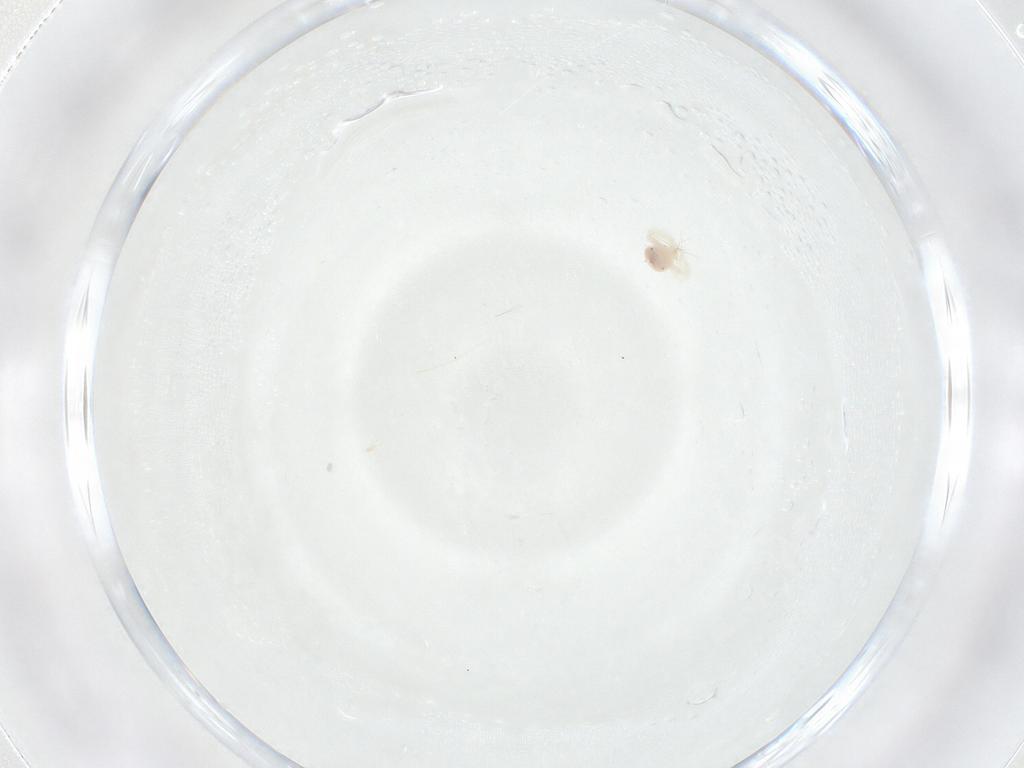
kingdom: Animalia
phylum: Arthropoda
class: Arachnida
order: Trombidiformes
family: Anystidae
